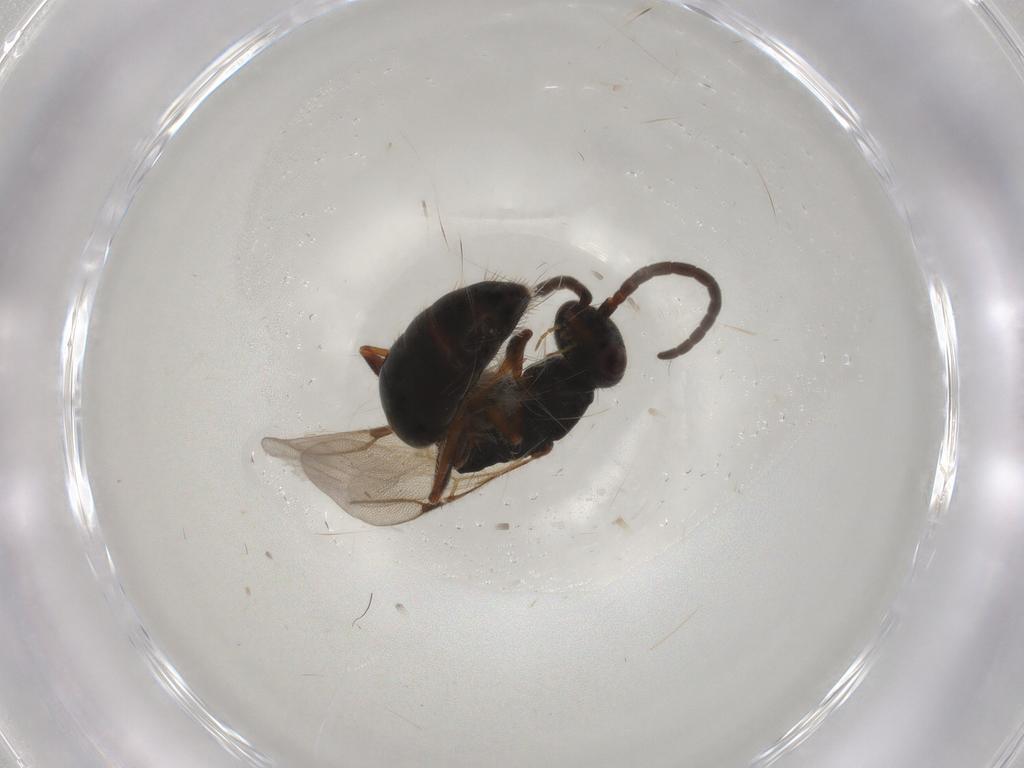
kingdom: Animalia
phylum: Arthropoda
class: Insecta
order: Hymenoptera
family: Bethylidae
